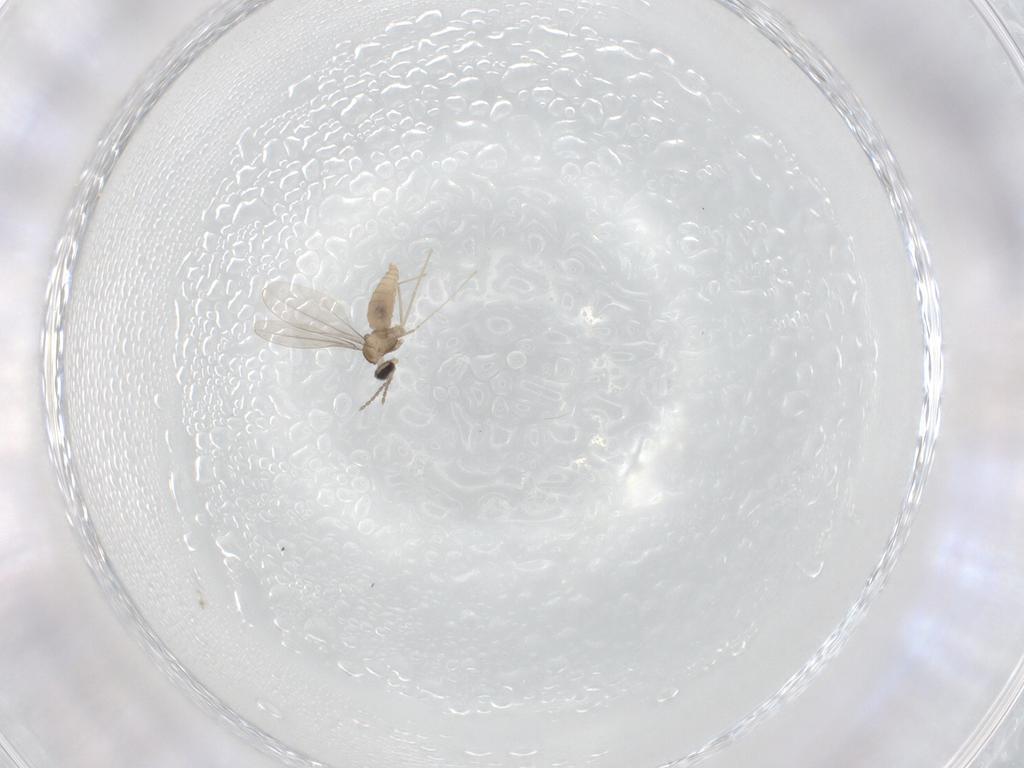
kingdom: Animalia
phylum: Arthropoda
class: Insecta
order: Diptera
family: Cecidomyiidae
